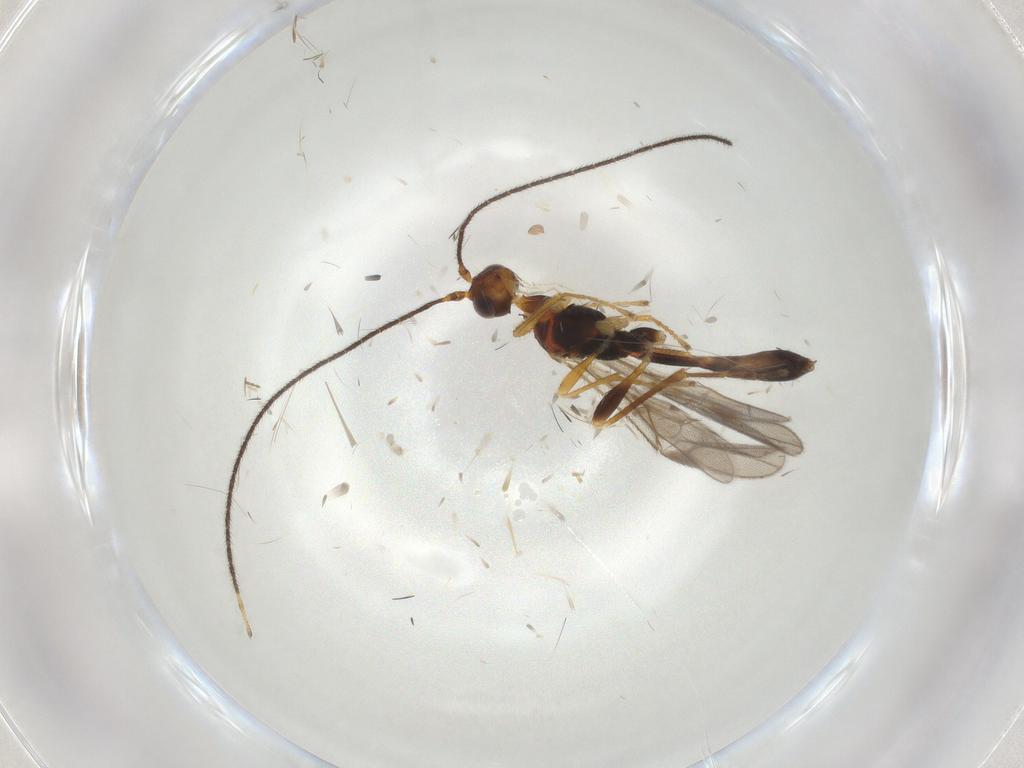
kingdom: Animalia
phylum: Arthropoda
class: Insecta
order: Hymenoptera
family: Braconidae
